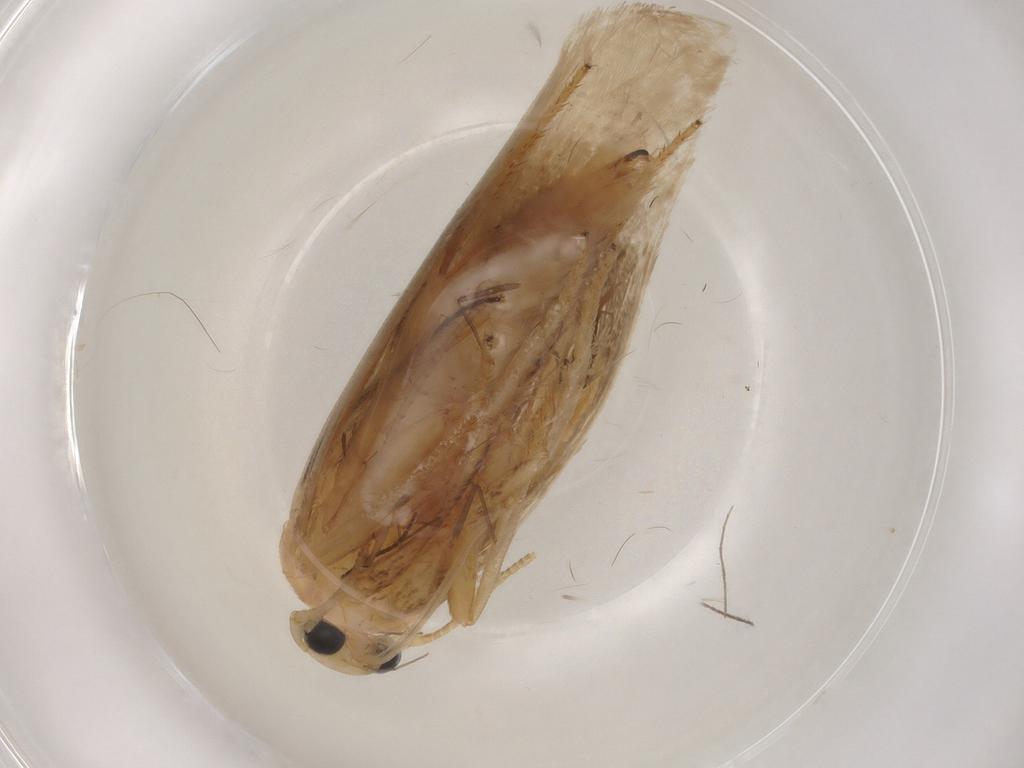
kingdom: Animalia
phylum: Arthropoda
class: Insecta
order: Lepidoptera
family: Geometridae
